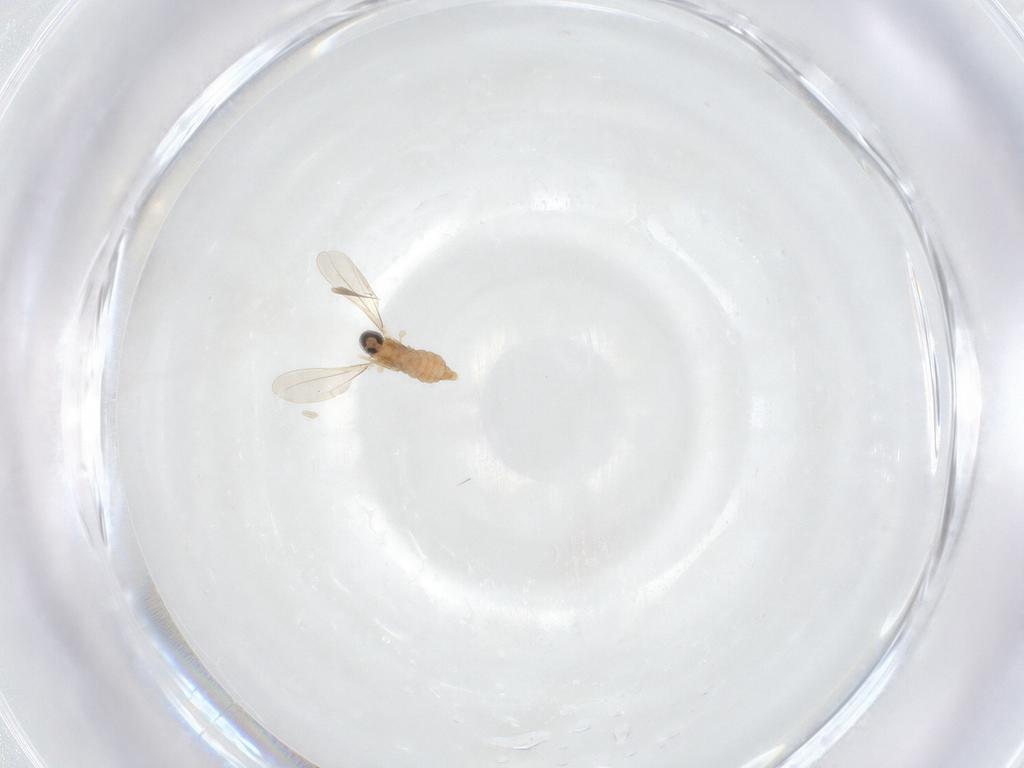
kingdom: Animalia
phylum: Arthropoda
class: Insecta
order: Diptera
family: Cecidomyiidae
